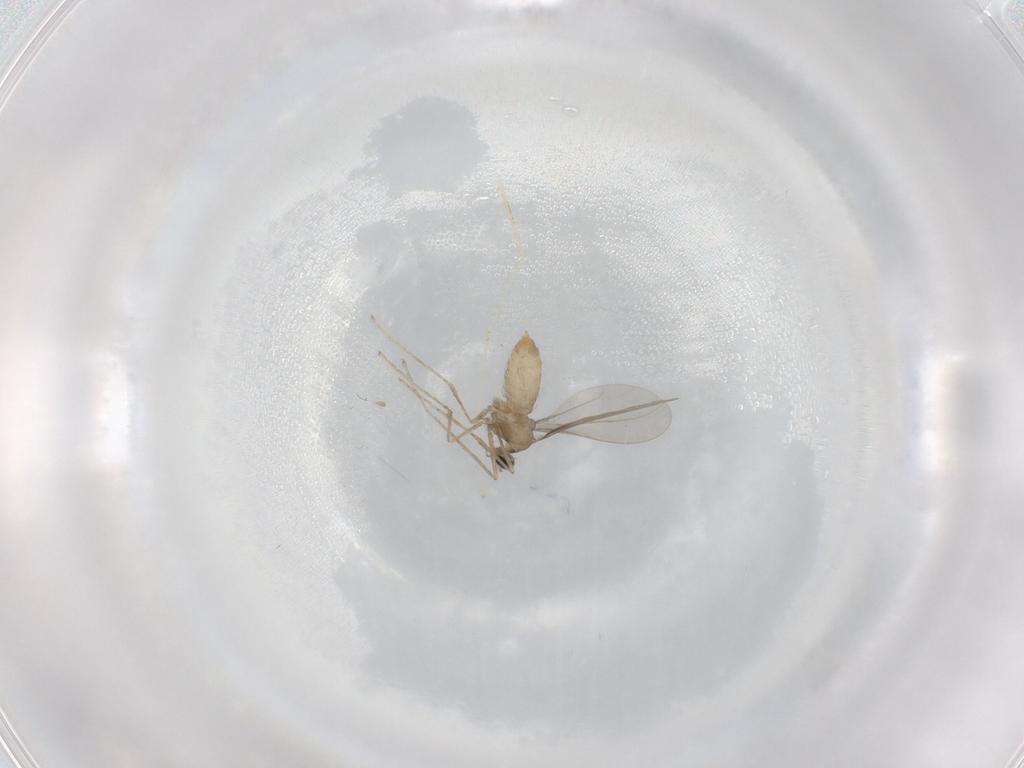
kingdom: Animalia
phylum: Arthropoda
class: Insecta
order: Diptera
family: Cecidomyiidae
